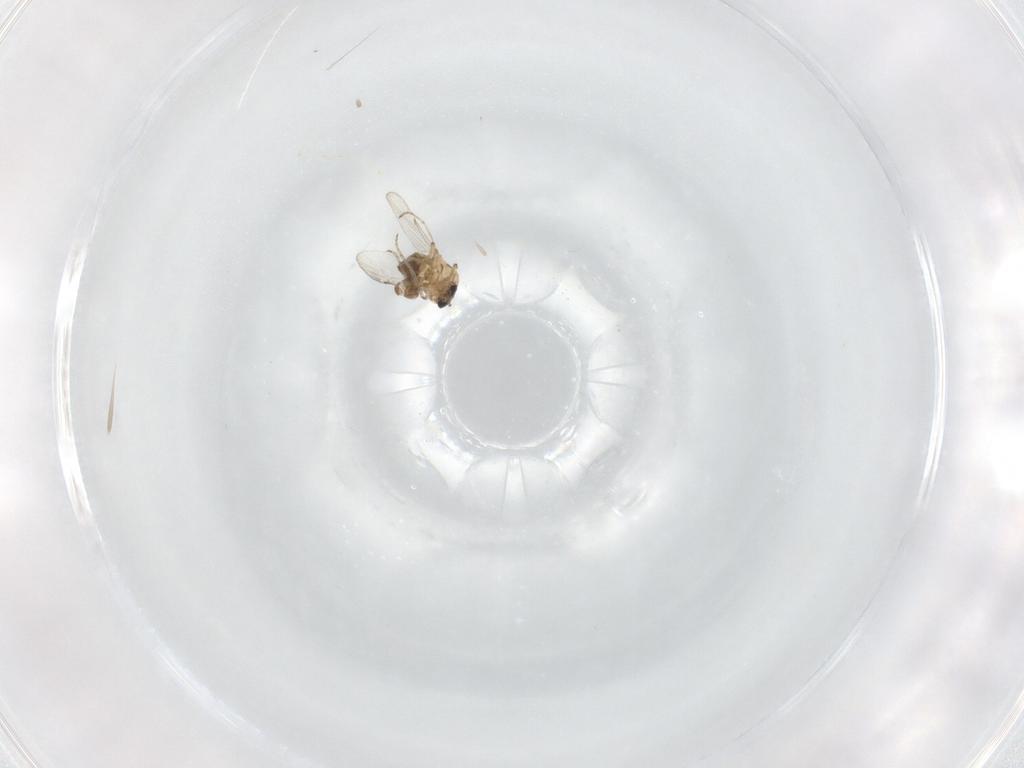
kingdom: Animalia
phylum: Arthropoda
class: Insecta
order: Diptera
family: Tachinidae
